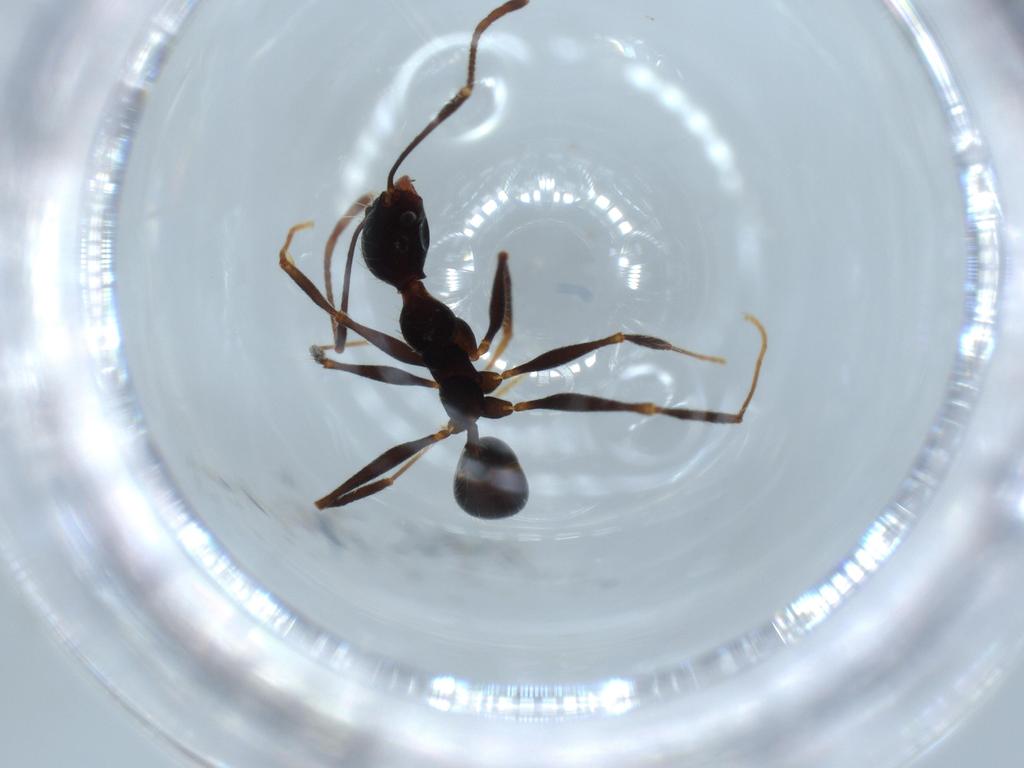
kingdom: Animalia
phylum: Arthropoda
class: Insecta
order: Hymenoptera
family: Formicidae
